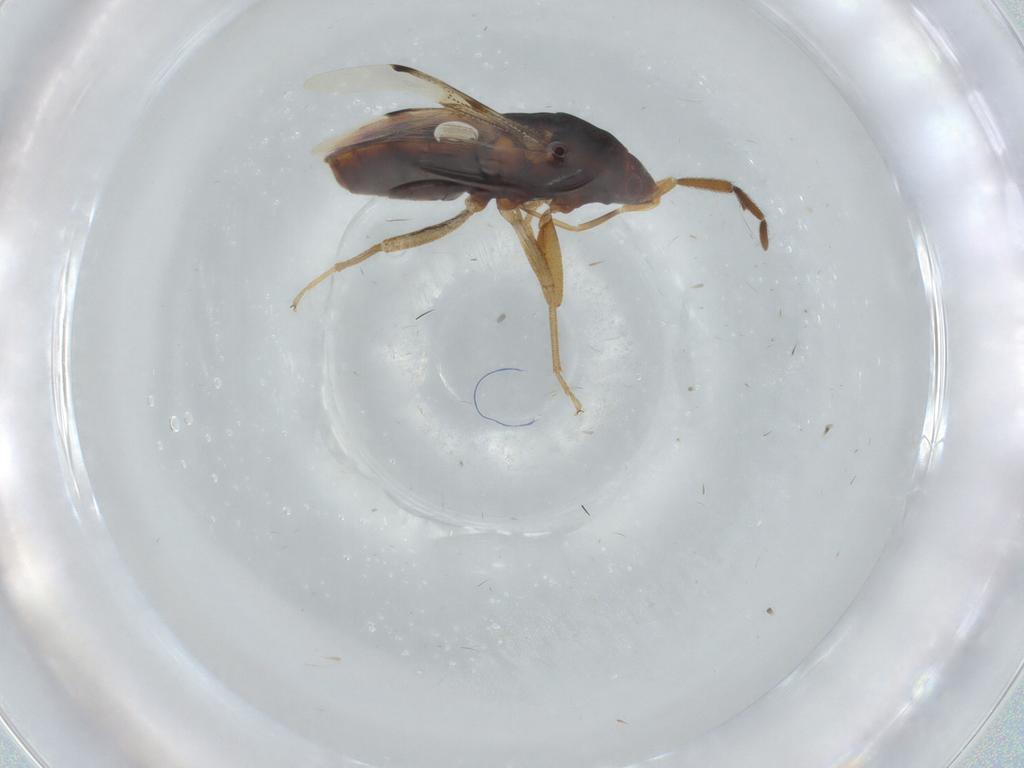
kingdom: Animalia
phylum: Arthropoda
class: Insecta
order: Hemiptera
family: Rhyparochromidae
